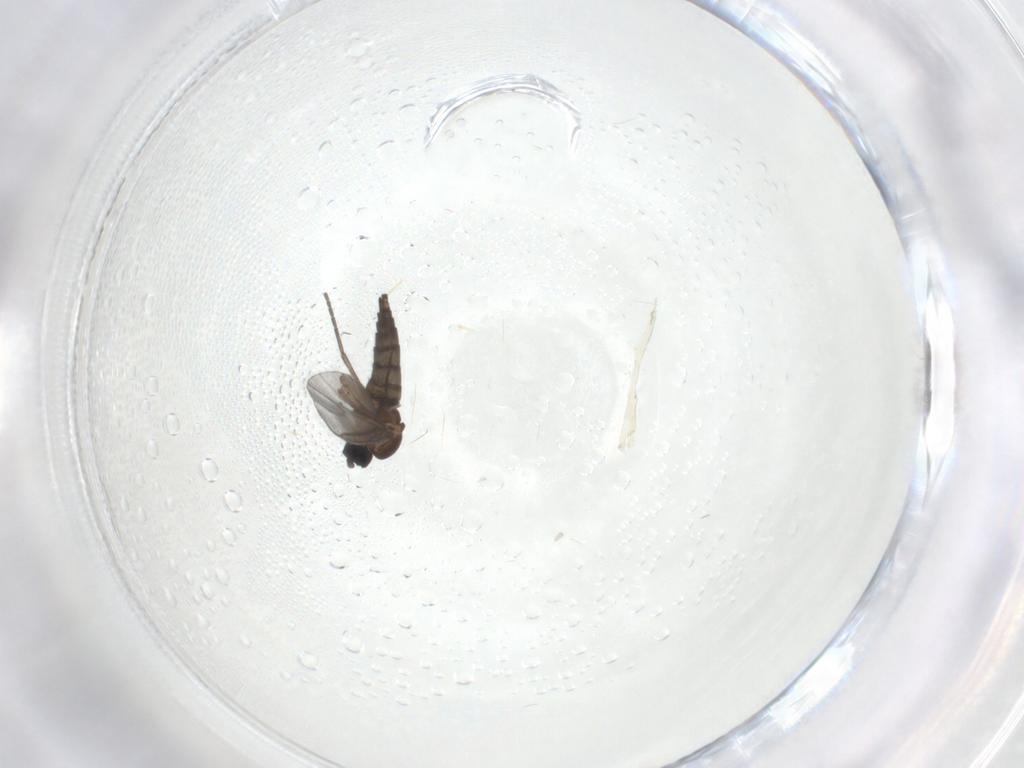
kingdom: Animalia
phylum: Arthropoda
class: Insecta
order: Diptera
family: Sciaridae
